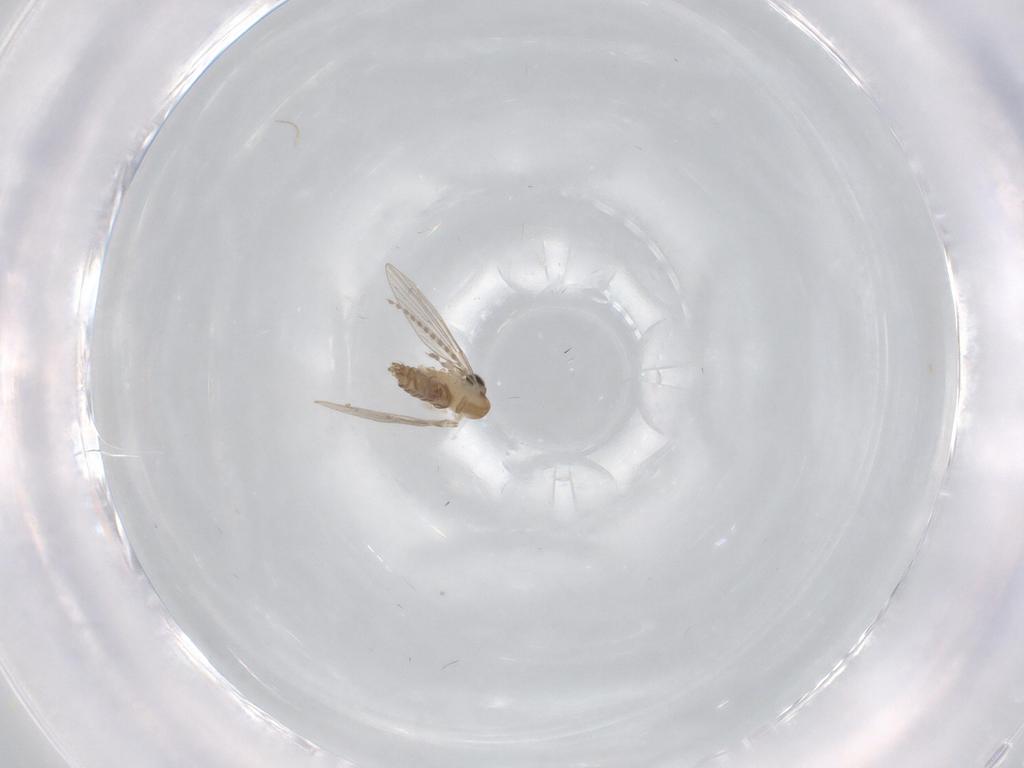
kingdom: Animalia
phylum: Arthropoda
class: Insecta
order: Diptera
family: Psychodidae
